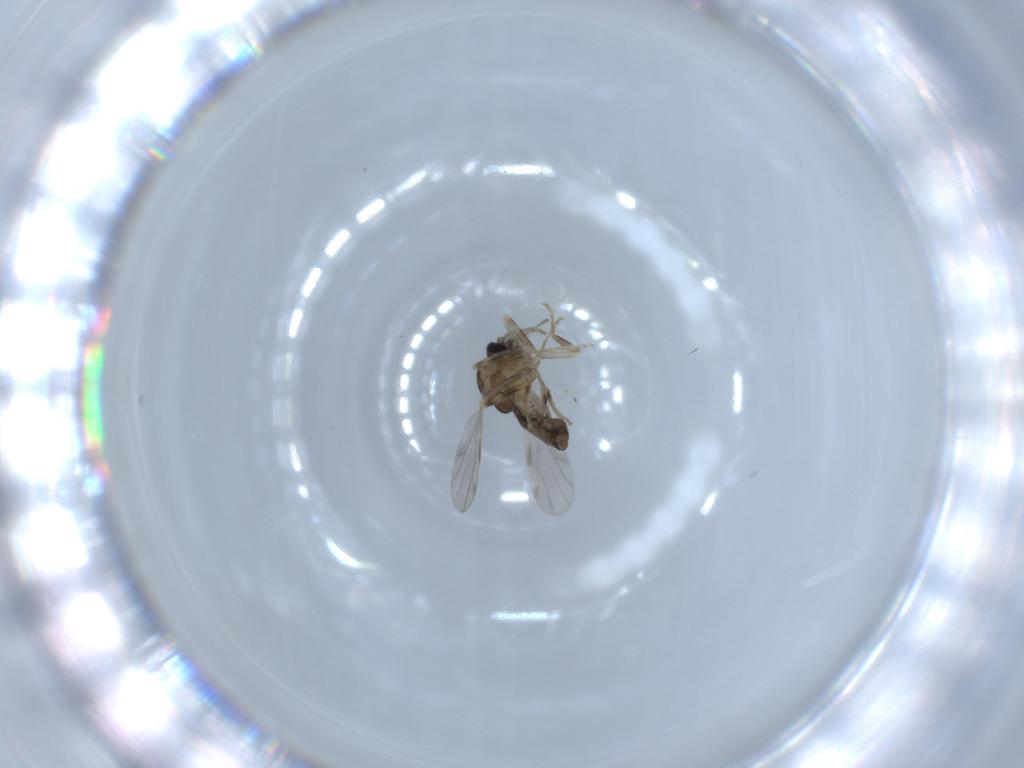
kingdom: Animalia
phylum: Arthropoda
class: Insecta
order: Diptera
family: Ceratopogonidae
